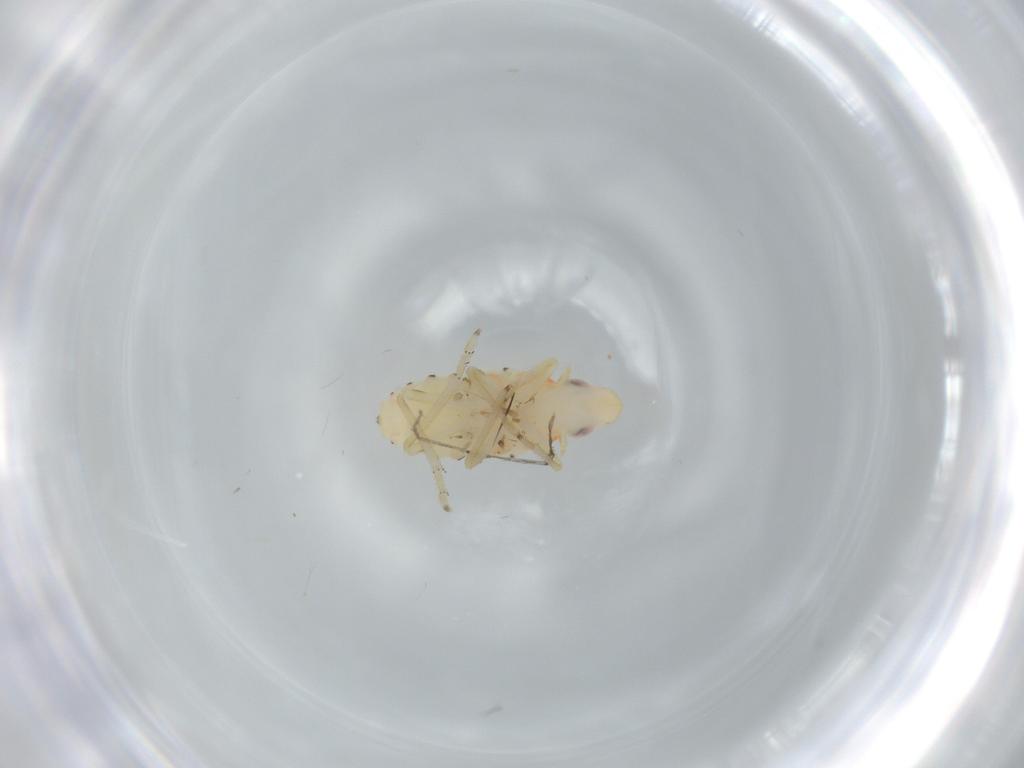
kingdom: Animalia
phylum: Arthropoda
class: Insecta
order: Hemiptera
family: Tropiduchidae
